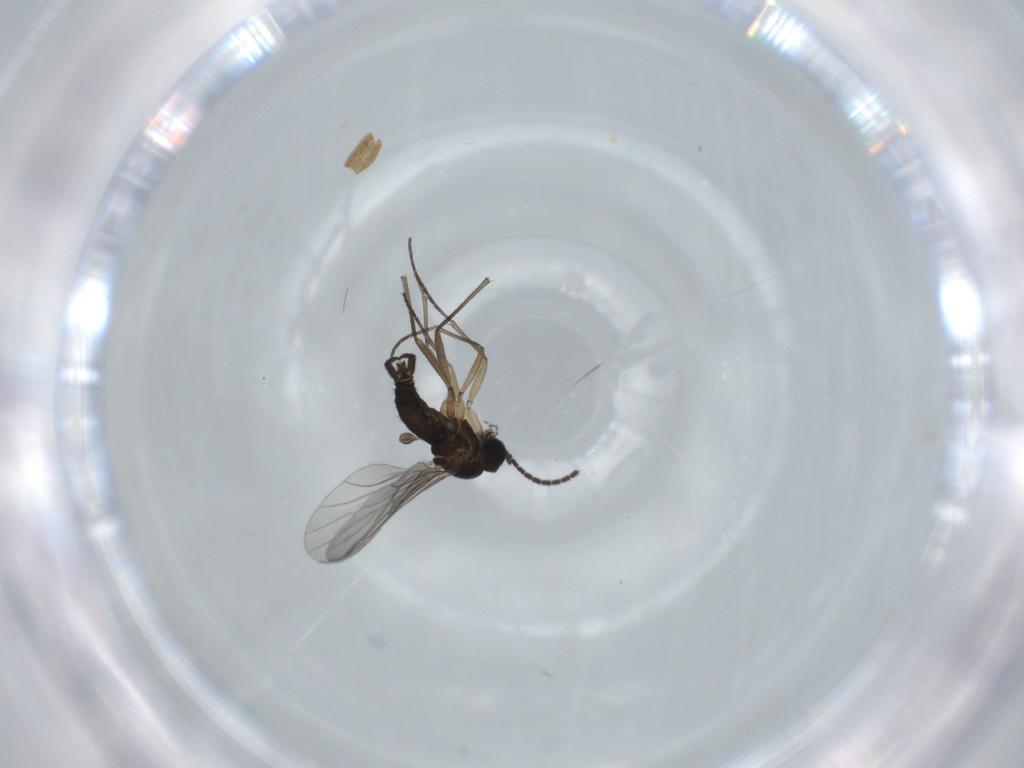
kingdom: Animalia
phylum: Arthropoda
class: Insecta
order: Diptera
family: Sciaridae
